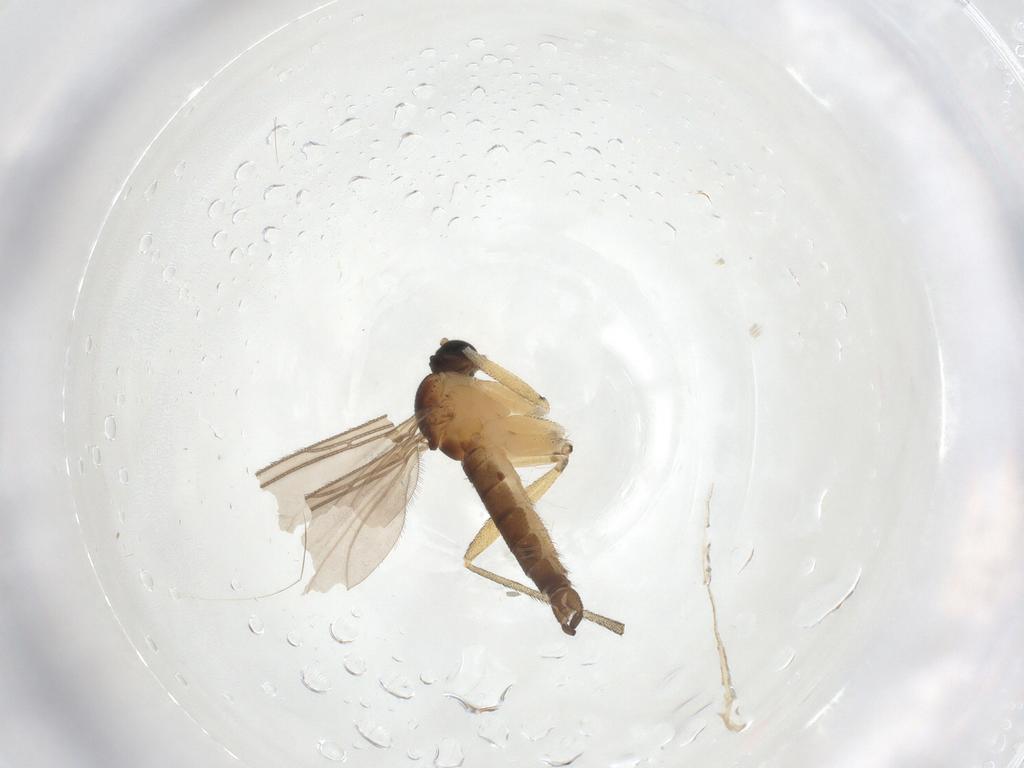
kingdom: Animalia
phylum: Arthropoda
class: Insecta
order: Diptera
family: Sciaridae
